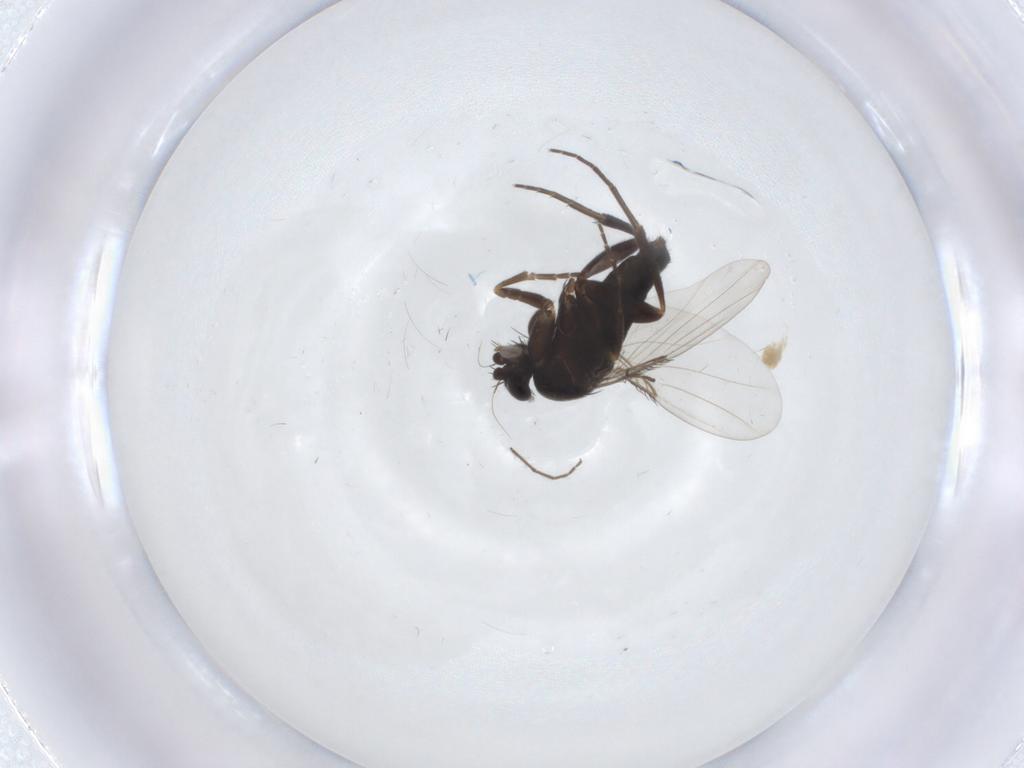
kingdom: Animalia
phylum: Arthropoda
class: Insecta
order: Diptera
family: Phoridae
